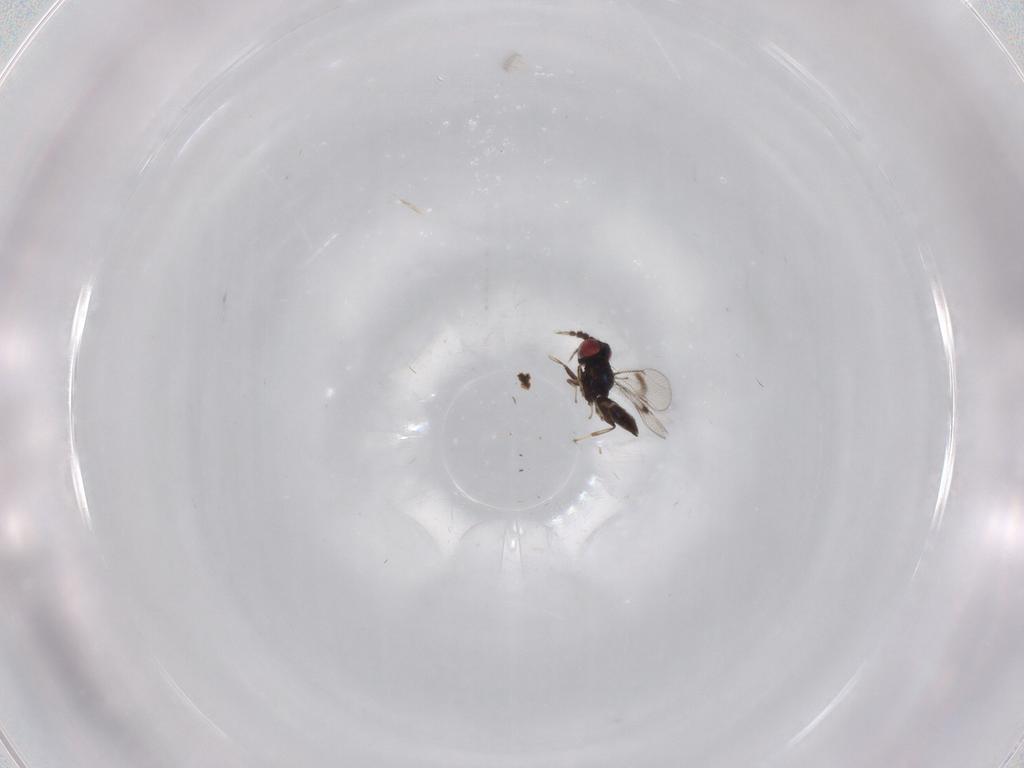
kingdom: Animalia
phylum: Arthropoda
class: Insecta
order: Hymenoptera
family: Eulophidae
